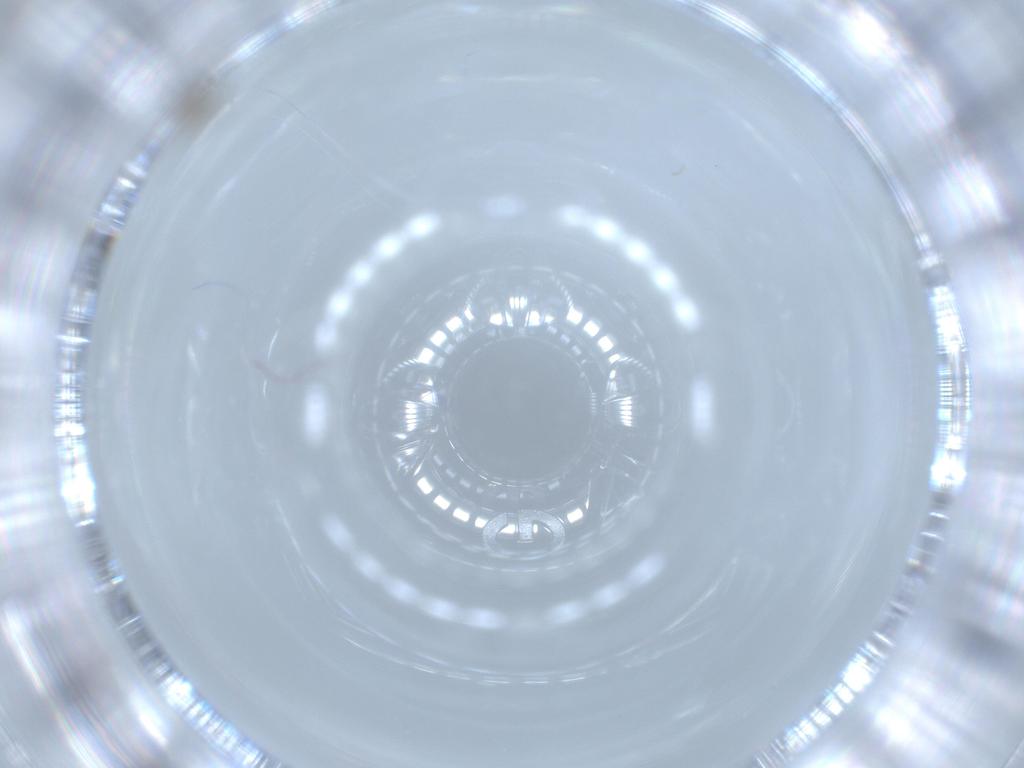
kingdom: Animalia
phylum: Arthropoda
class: Insecta
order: Diptera
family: Cecidomyiidae
